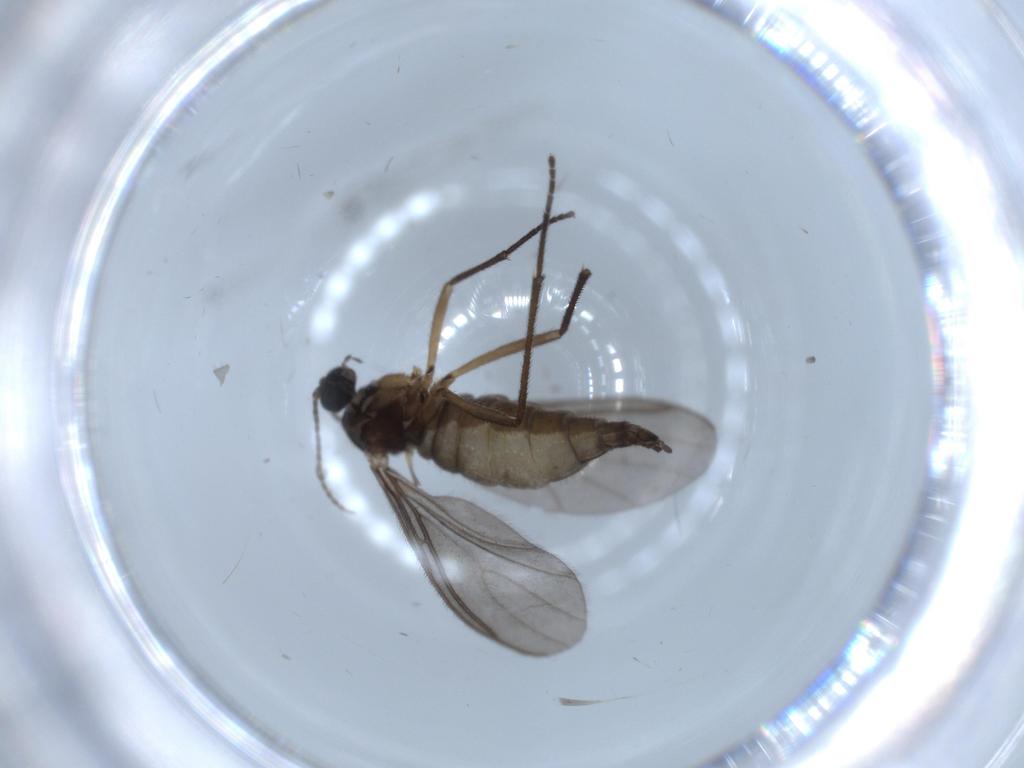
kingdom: Animalia
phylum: Arthropoda
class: Insecta
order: Diptera
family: Sciaridae
